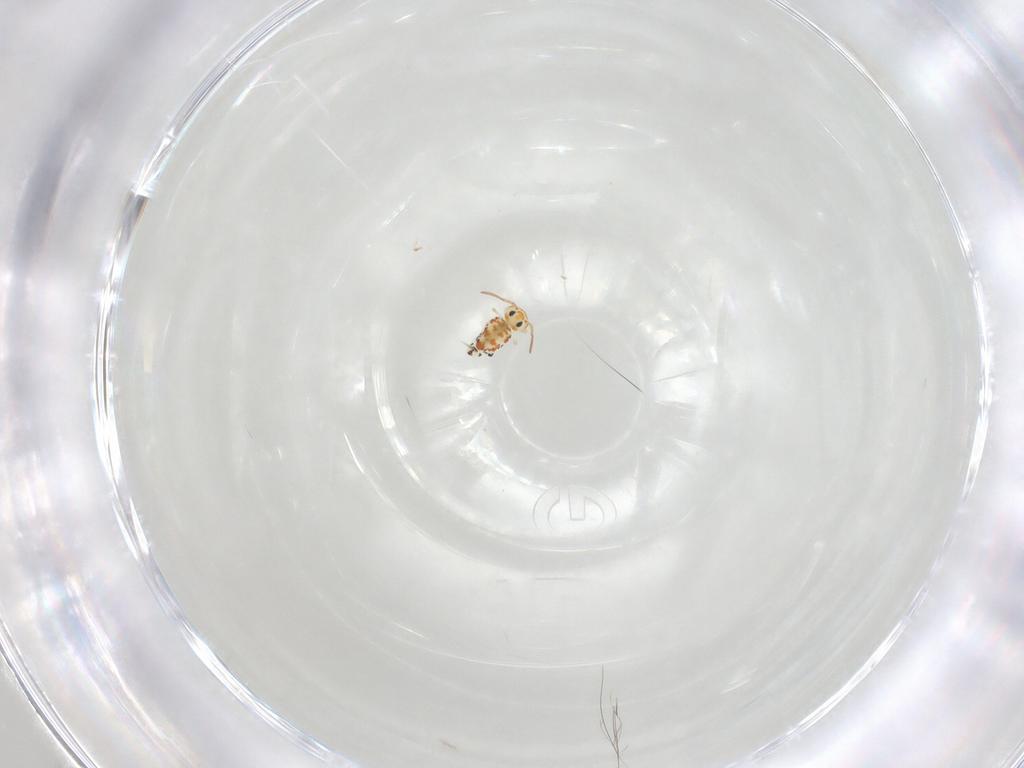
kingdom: Animalia
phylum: Arthropoda
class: Collembola
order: Symphypleona
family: Bourletiellidae
